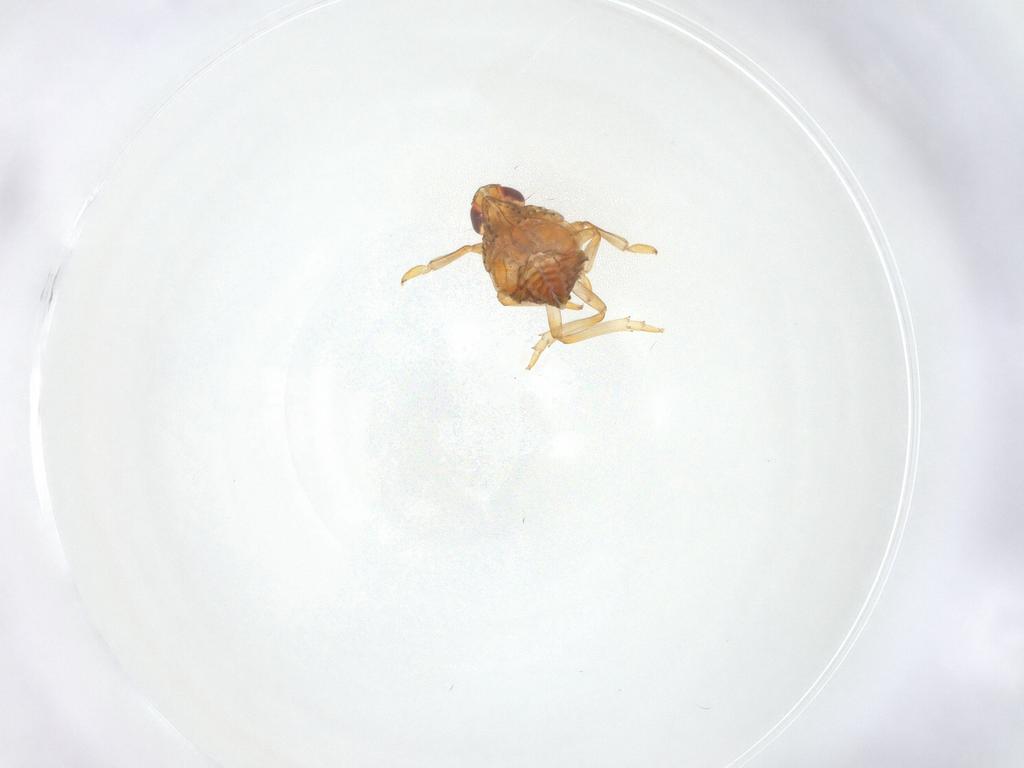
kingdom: Animalia
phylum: Arthropoda
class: Insecta
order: Hemiptera
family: Issidae
